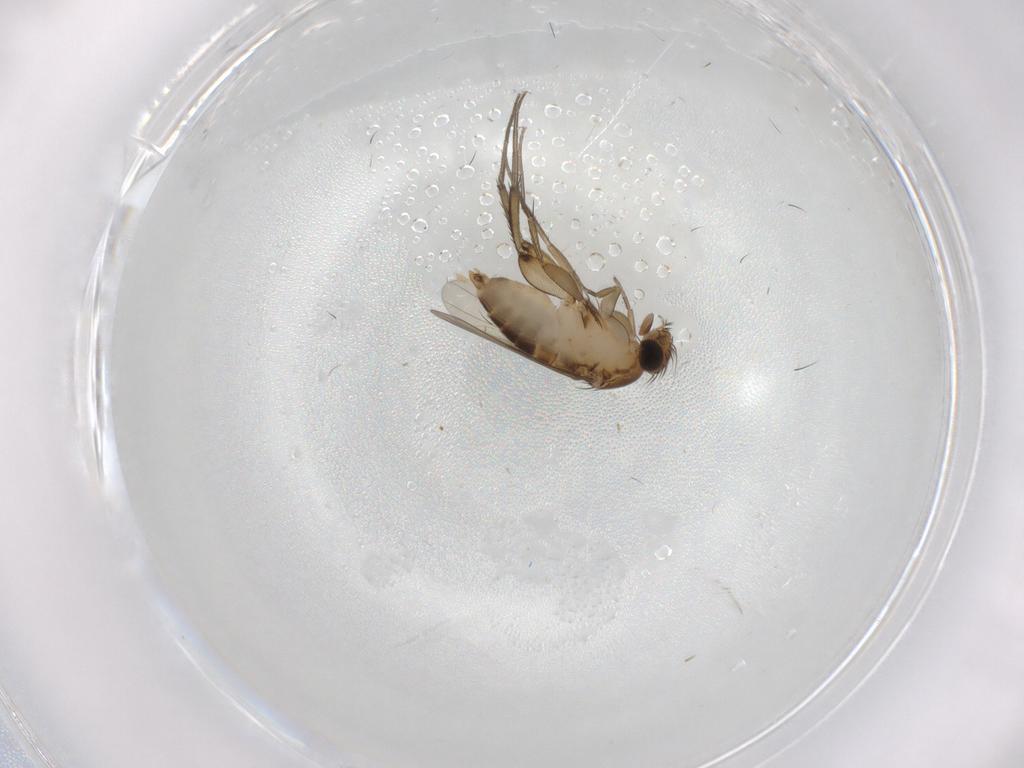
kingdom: Animalia
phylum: Arthropoda
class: Insecta
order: Diptera
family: Phoridae
